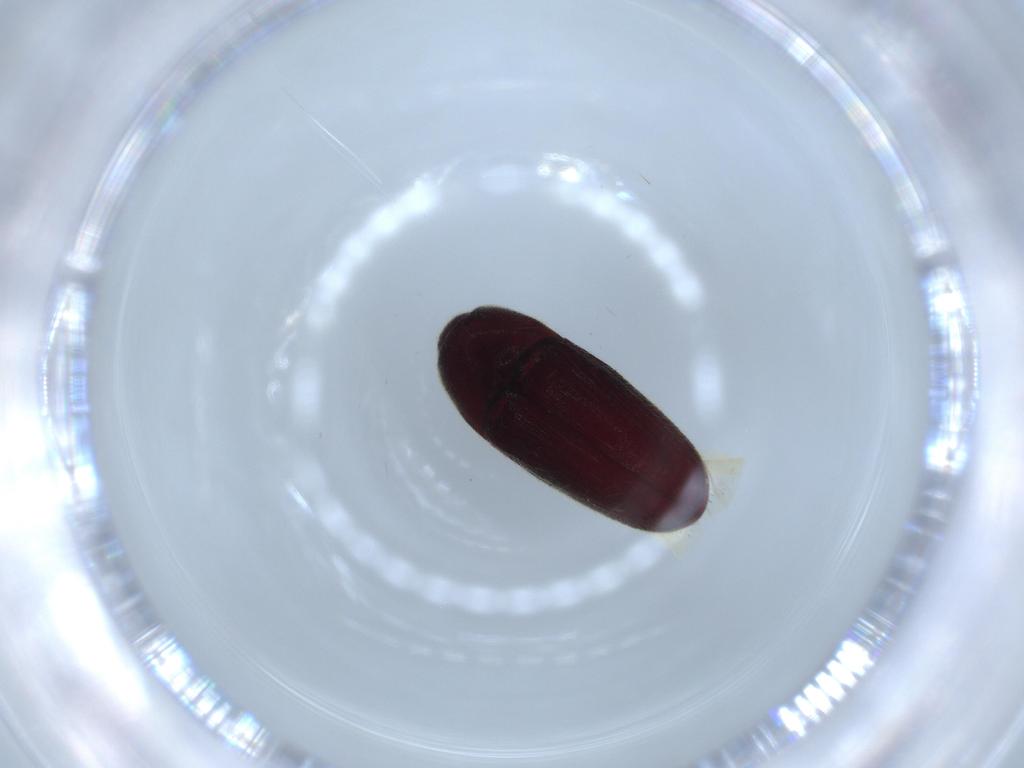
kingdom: Animalia
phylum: Arthropoda
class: Insecta
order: Coleoptera
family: Throscidae
